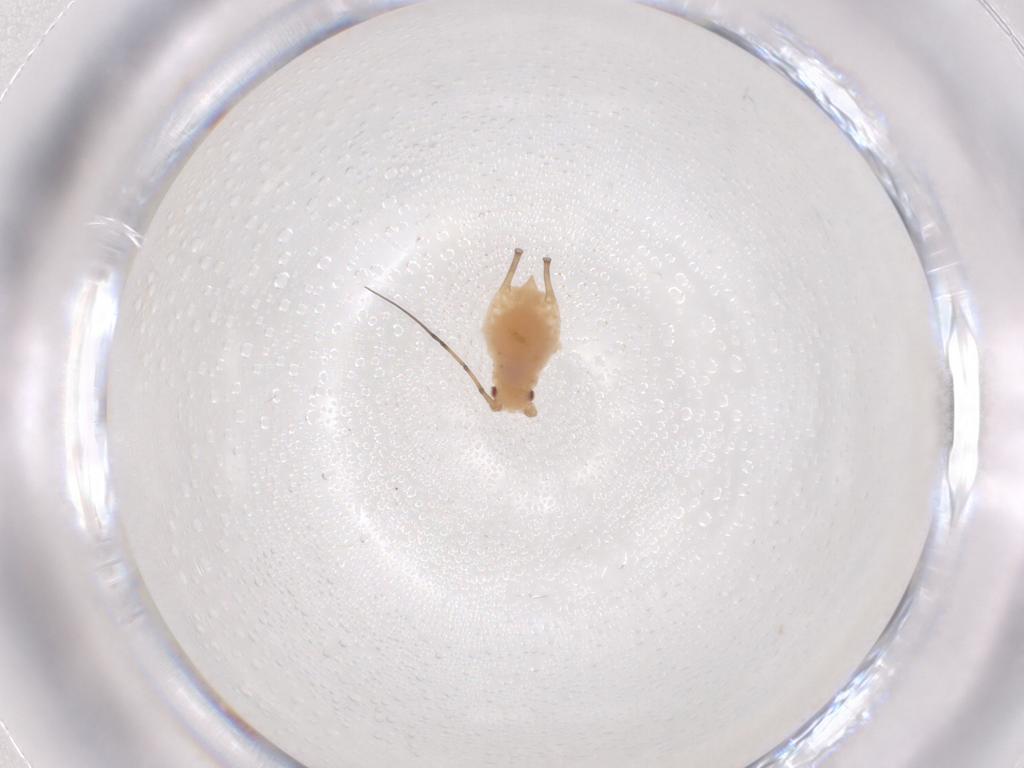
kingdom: Animalia
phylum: Arthropoda
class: Insecta
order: Hemiptera
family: Aphididae
